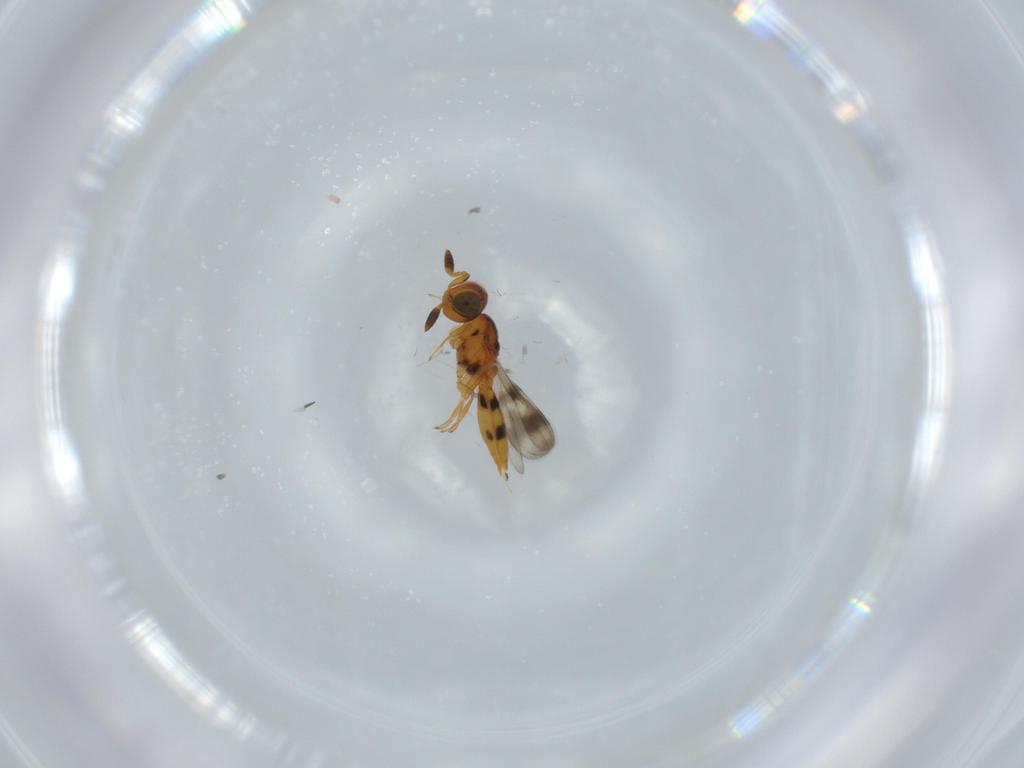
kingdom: Animalia
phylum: Arthropoda
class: Insecta
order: Hymenoptera
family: Scelionidae
